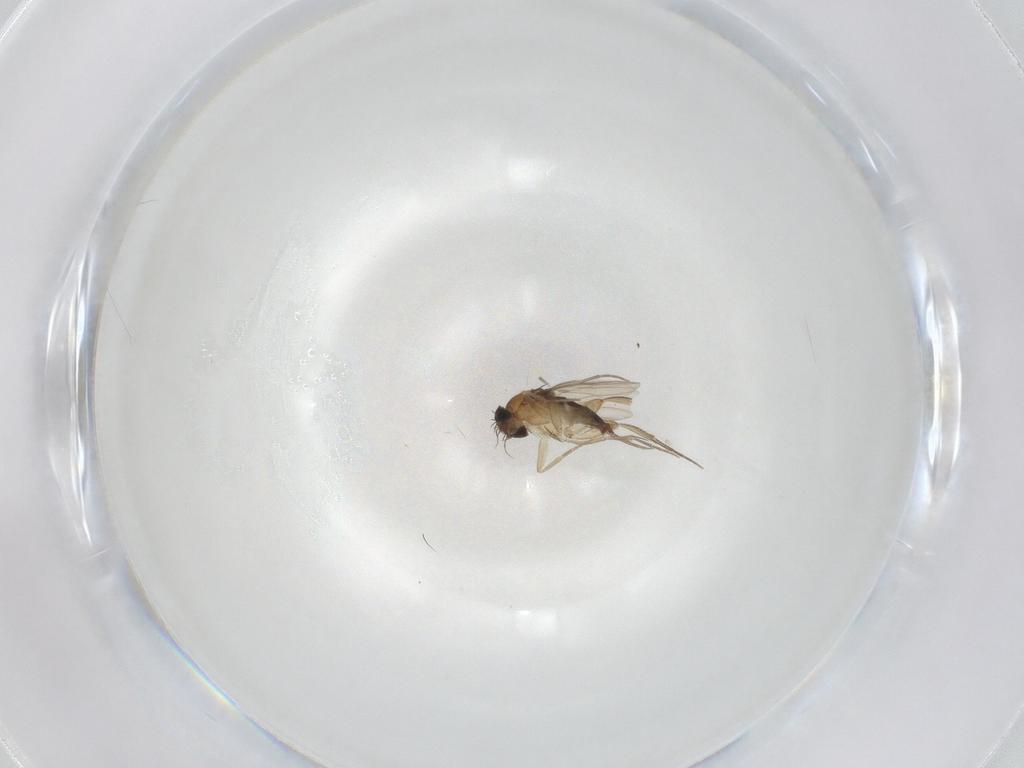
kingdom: Animalia
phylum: Arthropoda
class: Insecta
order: Diptera
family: Phoridae
